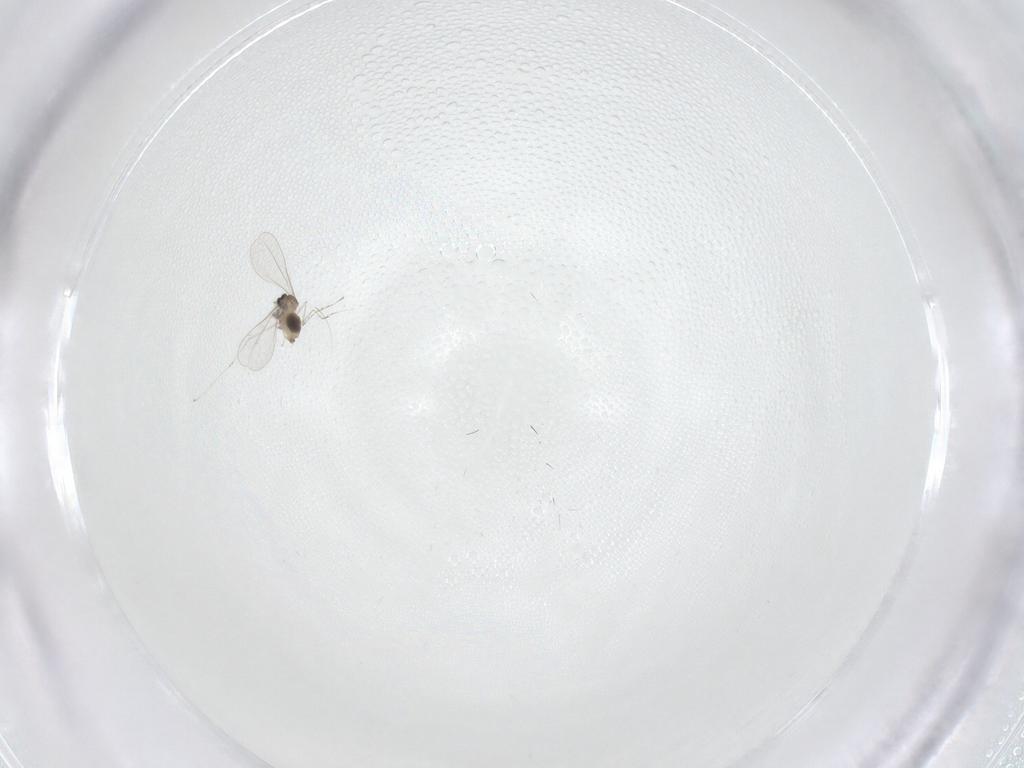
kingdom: Animalia
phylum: Arthropoda
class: Insecta
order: Diptera
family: Cecidomyiidae
